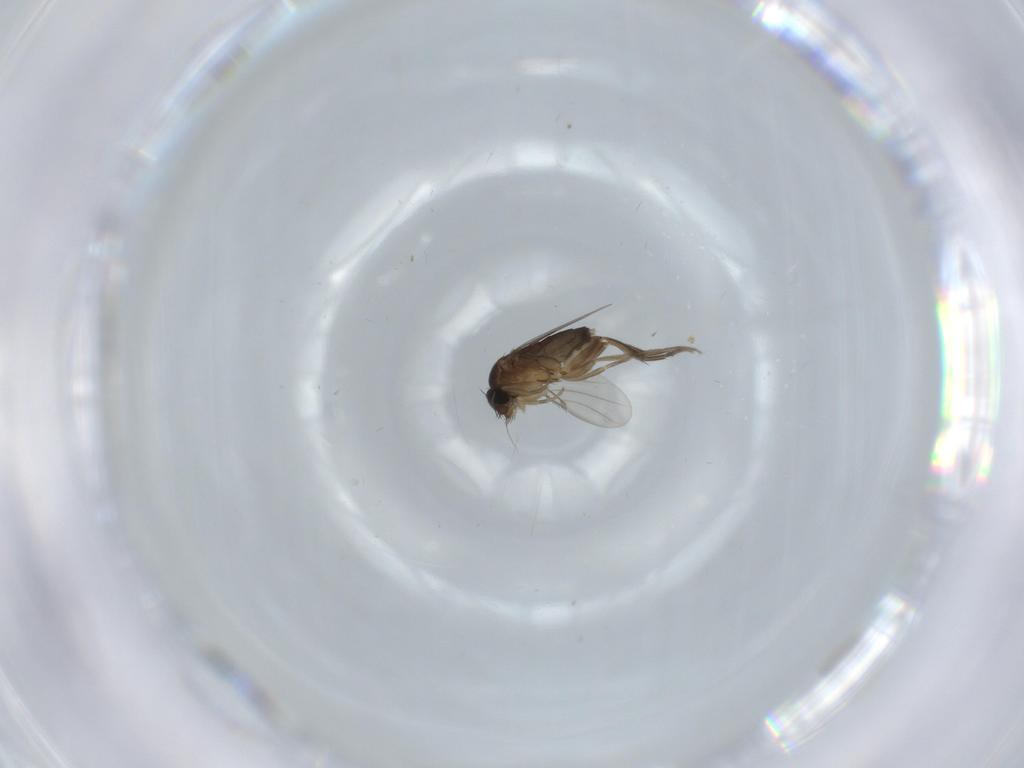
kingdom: Animalia
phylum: Arthropoda
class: Insecta
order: Diptera
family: Phoridae
